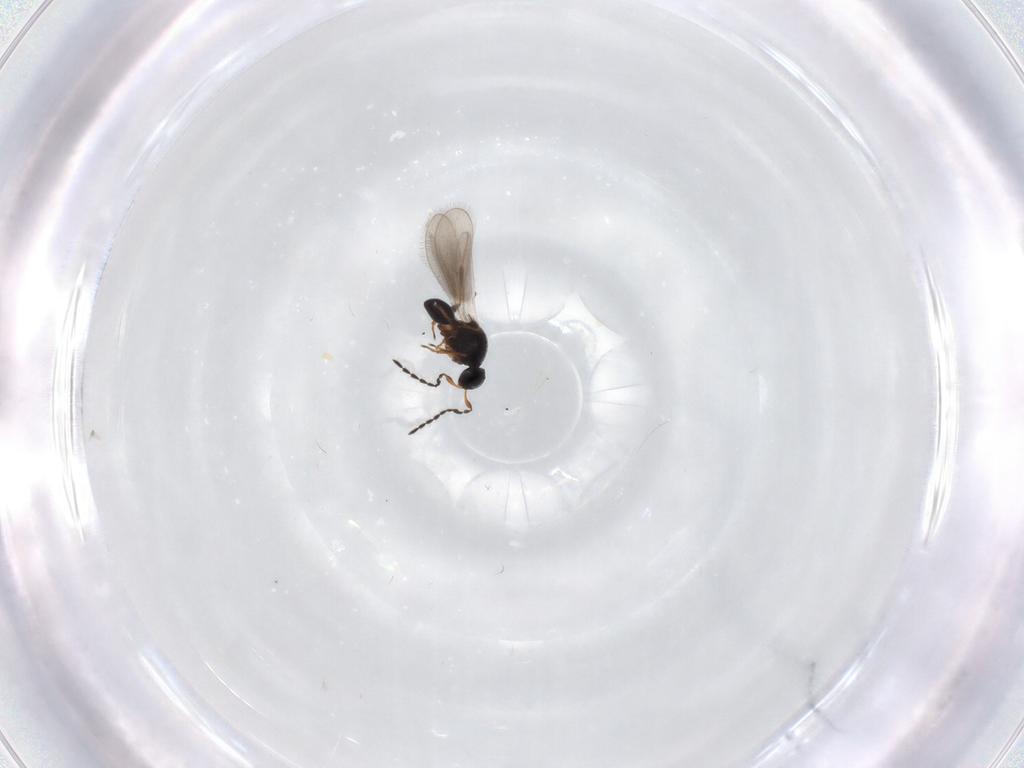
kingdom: Animalia
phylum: Arthropoda
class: Insecta
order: Hymenoptera
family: Platygastridae
